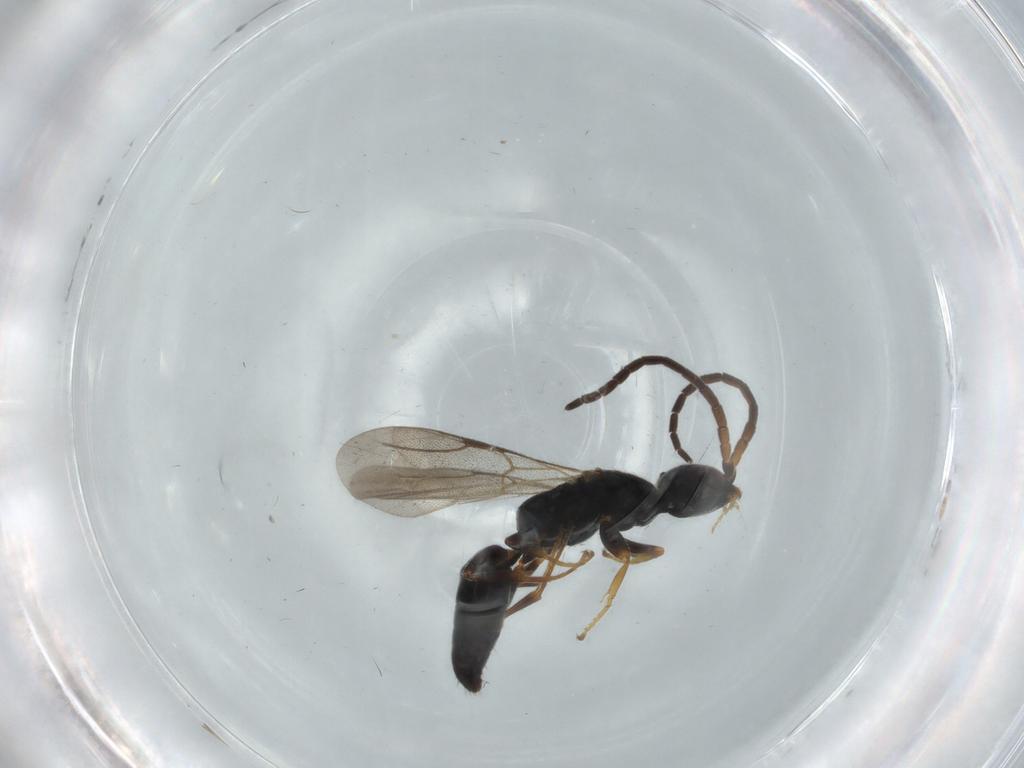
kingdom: Animalia
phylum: Arthropoda
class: Insecta
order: Hymenoptera
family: Bethylidae
